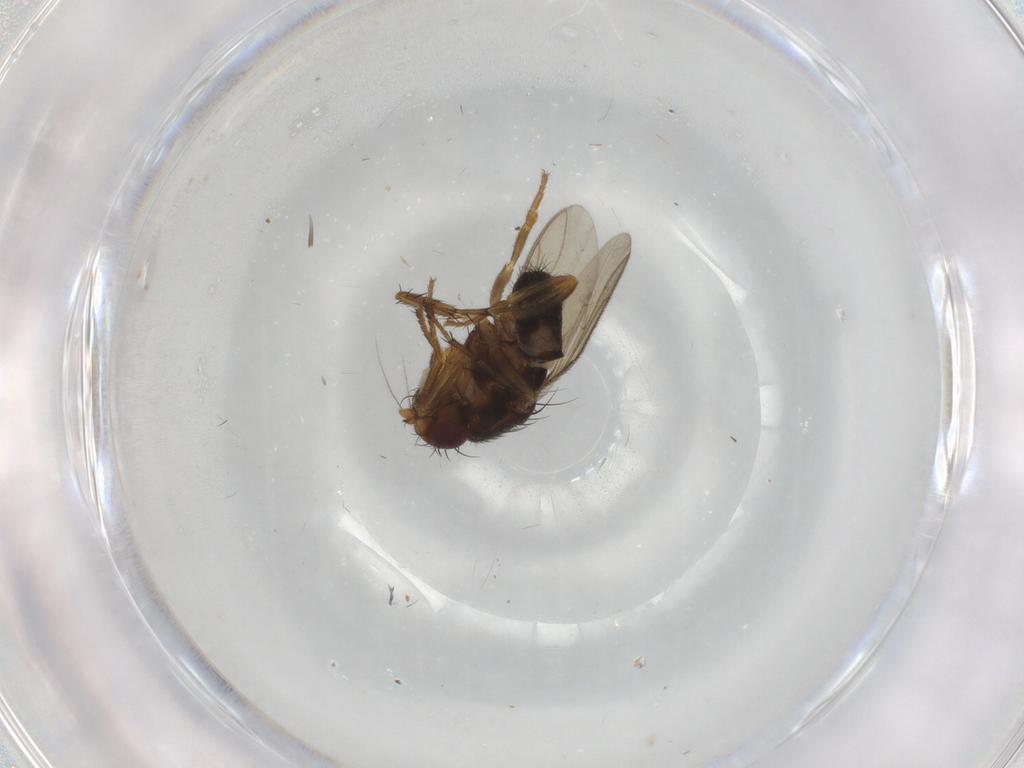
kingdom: Animalia
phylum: Arthropoda
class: Insecta
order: Diptera
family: Sphaeroceridae
